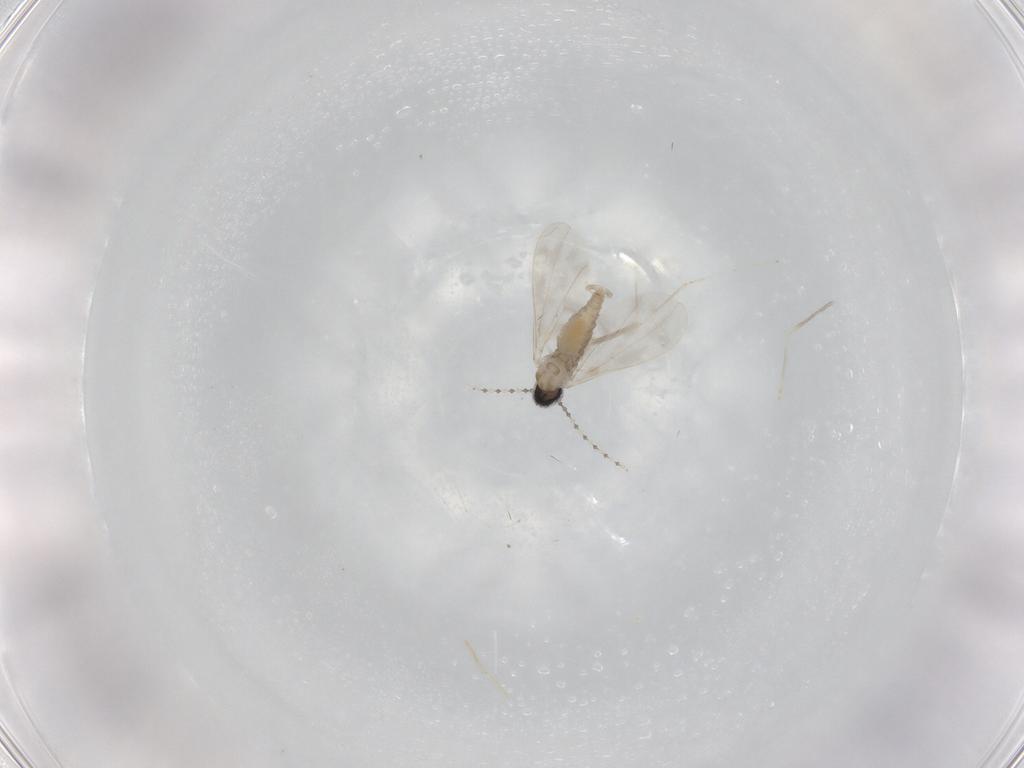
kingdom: Animalia
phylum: Arthropoda
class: Insecta
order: Diptera
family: Cecidomyiidae
